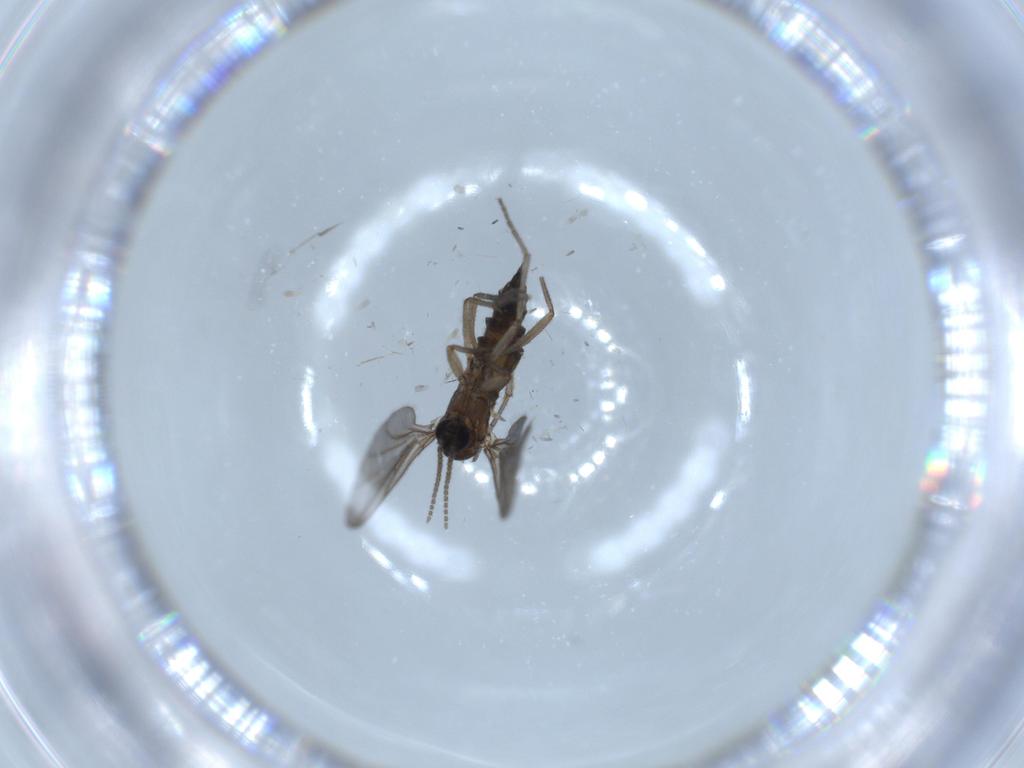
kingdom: Animalia
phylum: Arthropoda
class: Insecta
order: Diptera
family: Sciaridae
